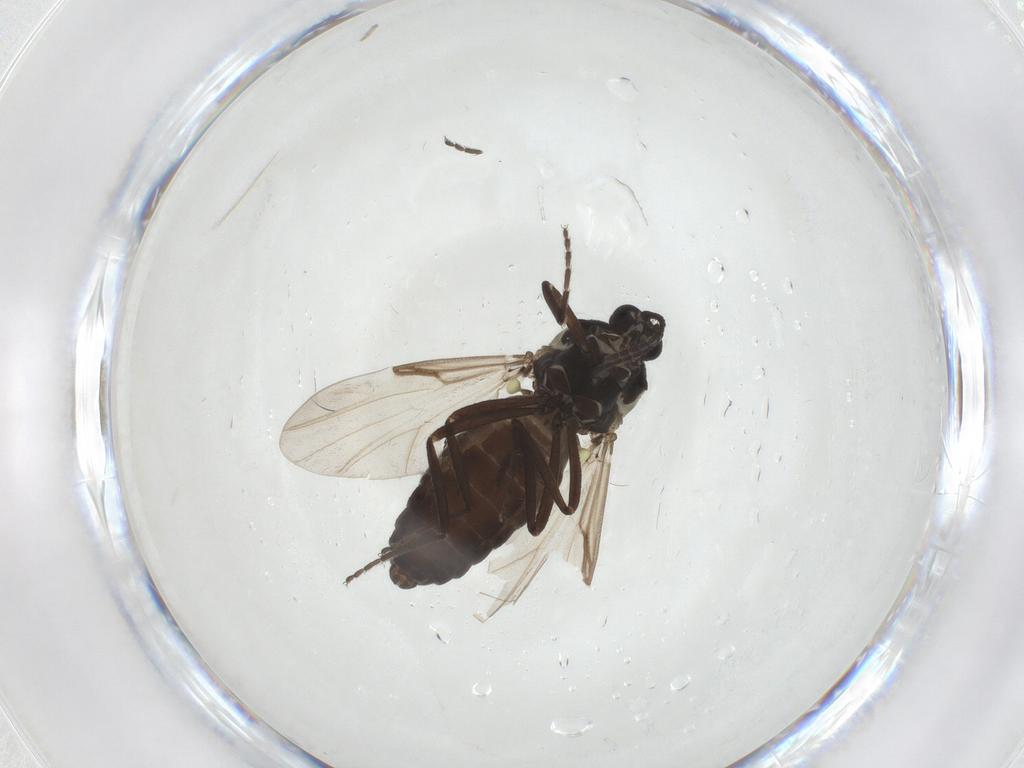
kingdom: Animalia
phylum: Arthropoda
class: Insecta
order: Diptera
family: Ceratopogonidae
